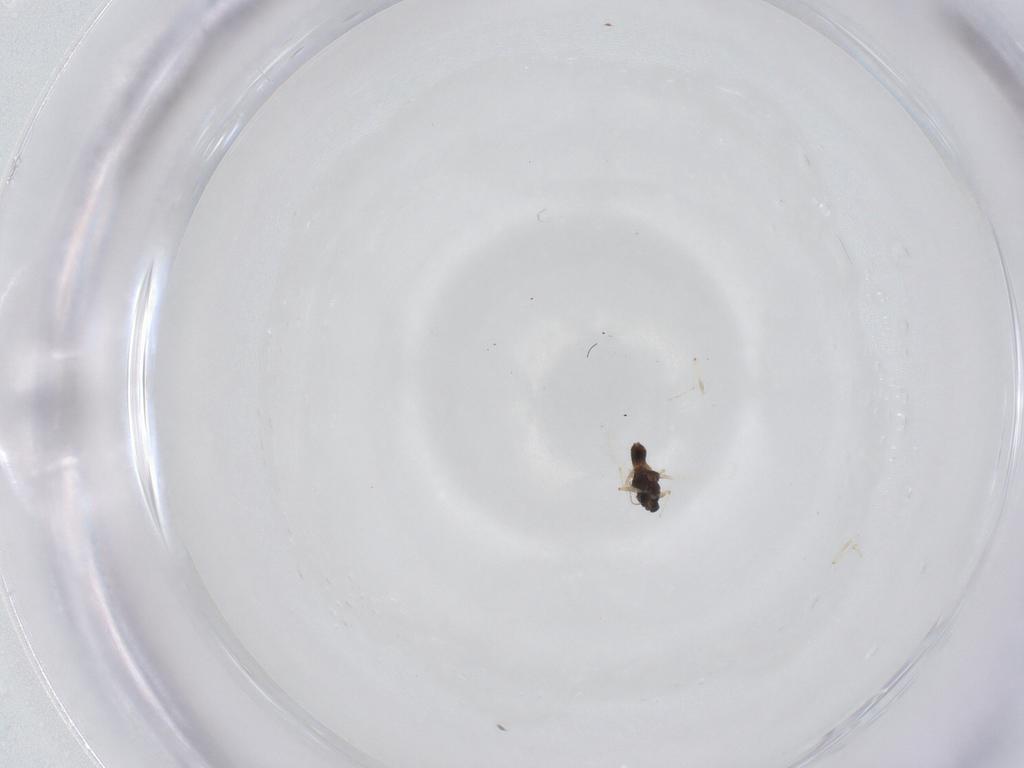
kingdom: Animalia
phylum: Arthropoda
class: Insecta
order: Diptera
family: Chironomidae
